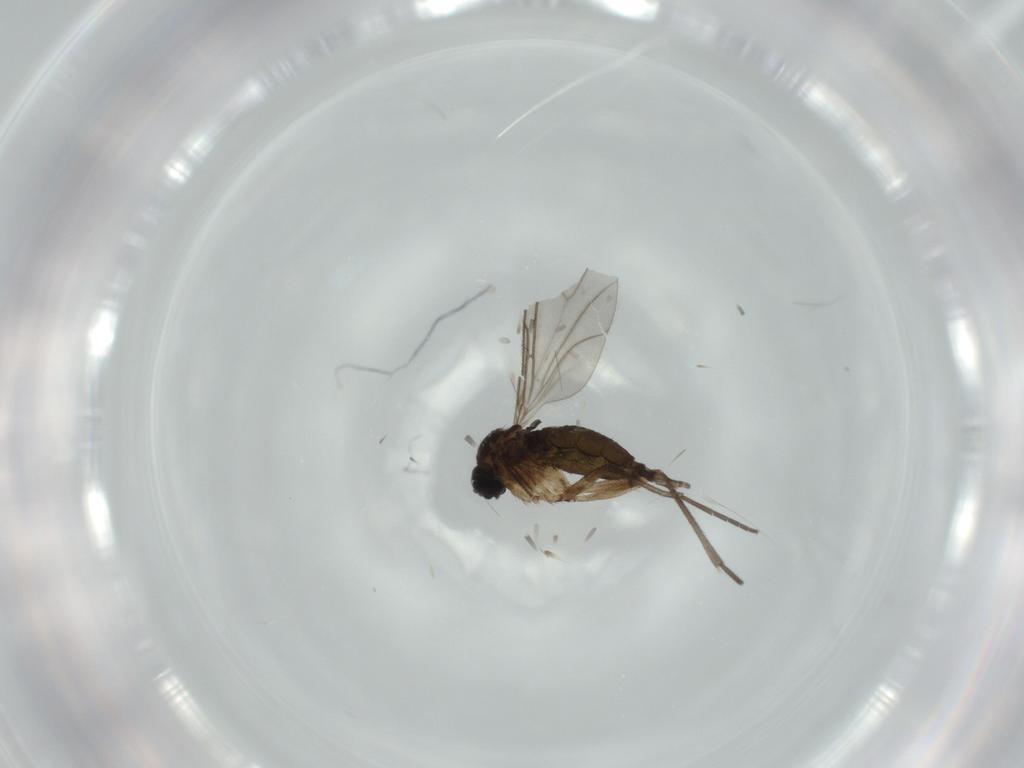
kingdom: Animalia
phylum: Arthropoda
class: Insecta
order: Diptera
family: Sciaridae
